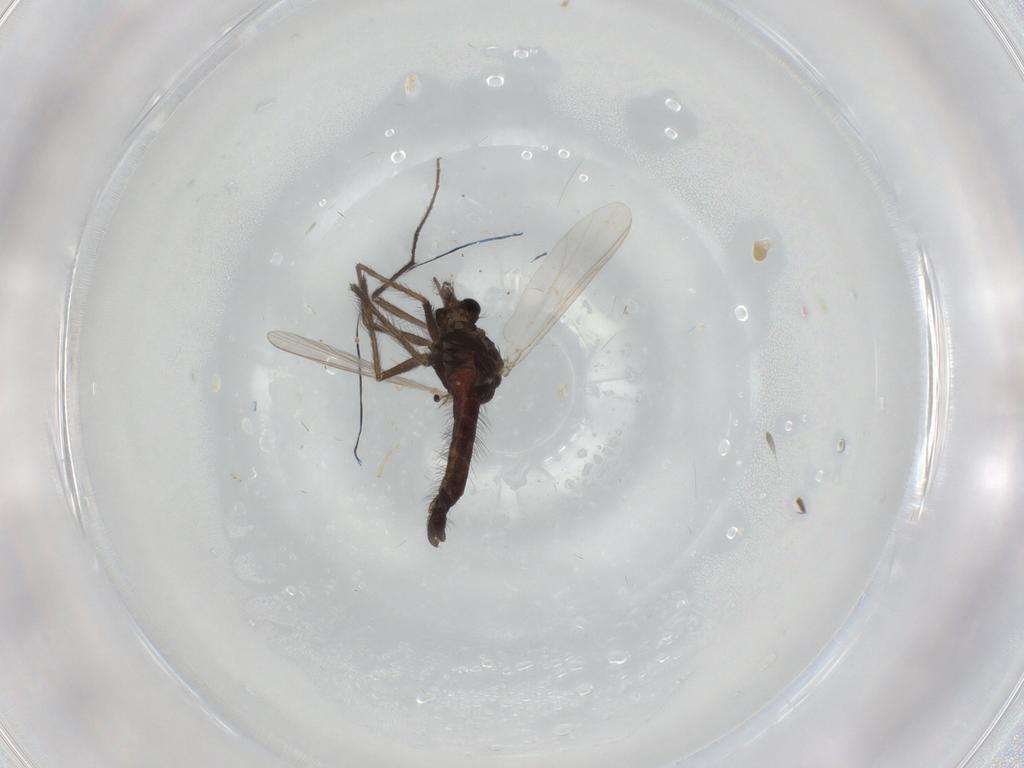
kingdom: Animalia
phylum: Arthropoda
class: Insecta
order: Diptera
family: Chironomidae
